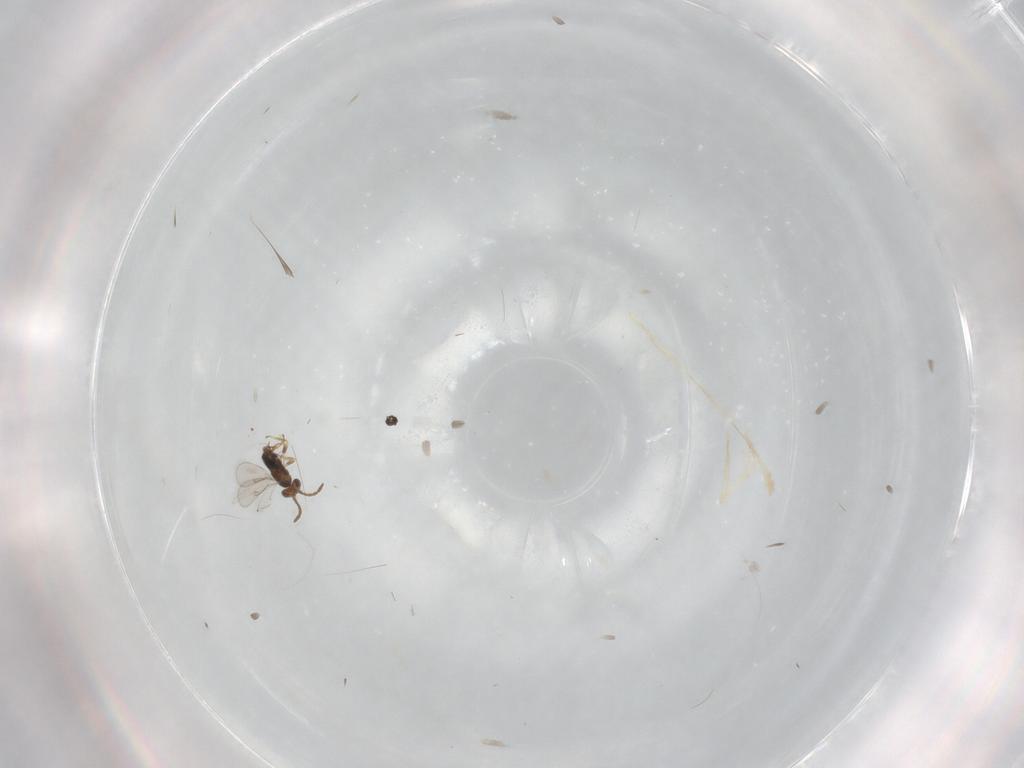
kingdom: Animalia
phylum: Arthropoda
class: Insecta
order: Hymenoptera
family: Aphelinidae
